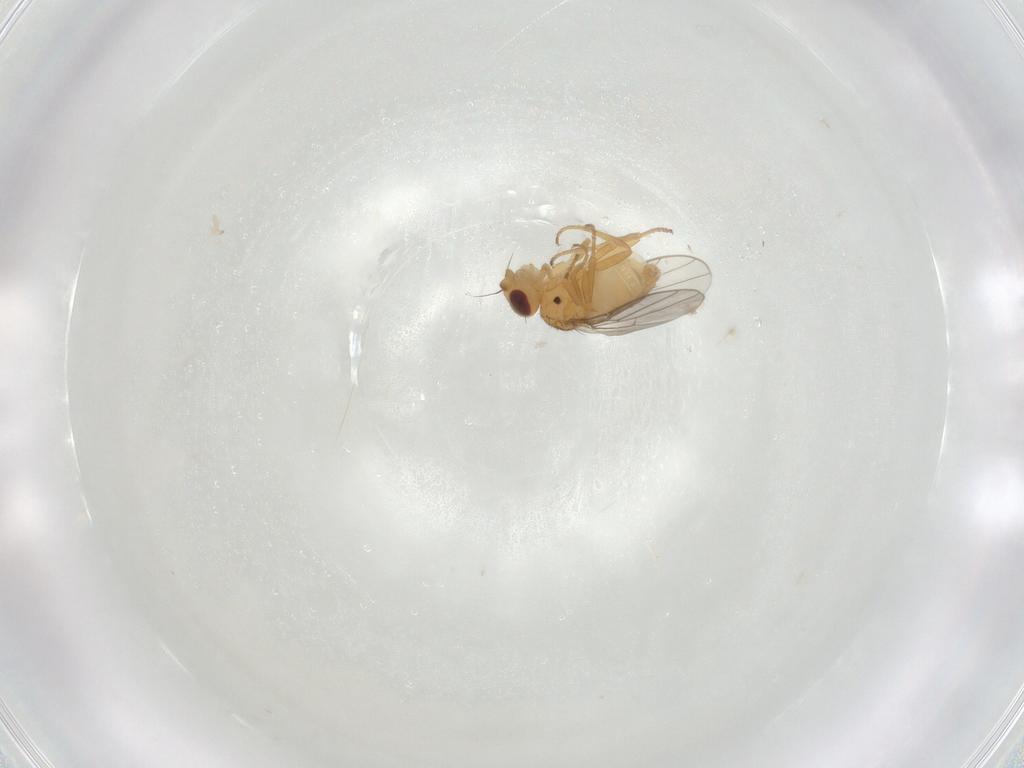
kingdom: Animalia
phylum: Arthropoda
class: Insecta
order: Diptera
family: Chloropidae
